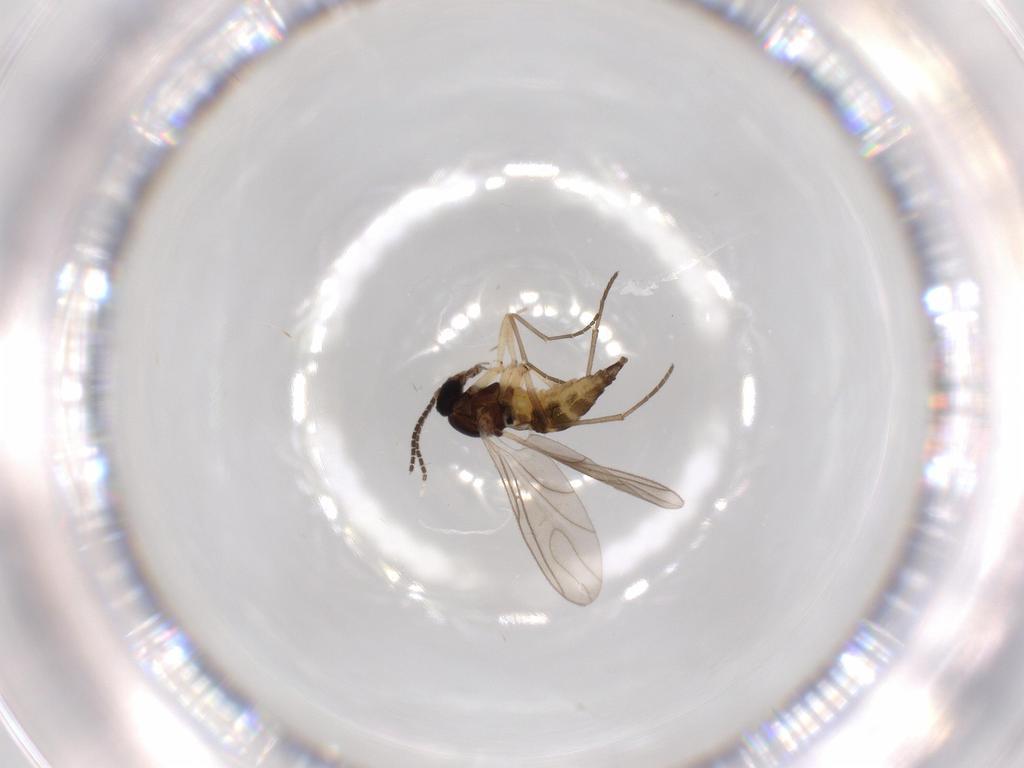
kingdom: Animalia
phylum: Arthropoda
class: Insecta
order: Diptera
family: Sciaridae
